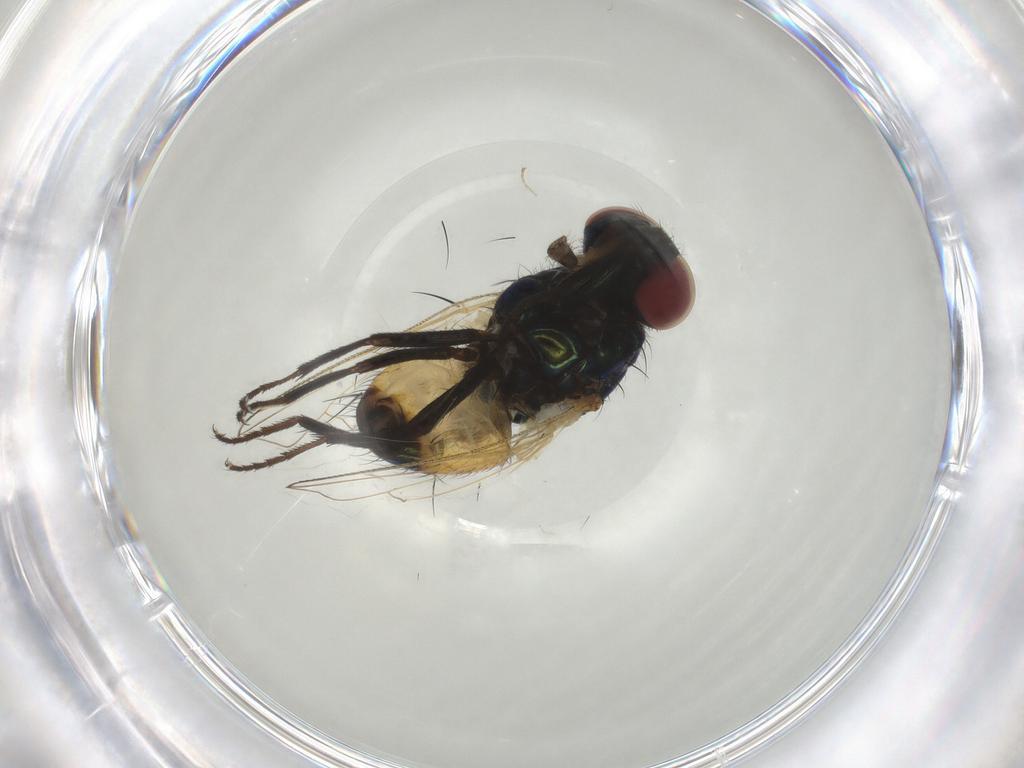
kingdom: Animalia
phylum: Arthropoda
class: Insecta
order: Diptera
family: Muscidae
